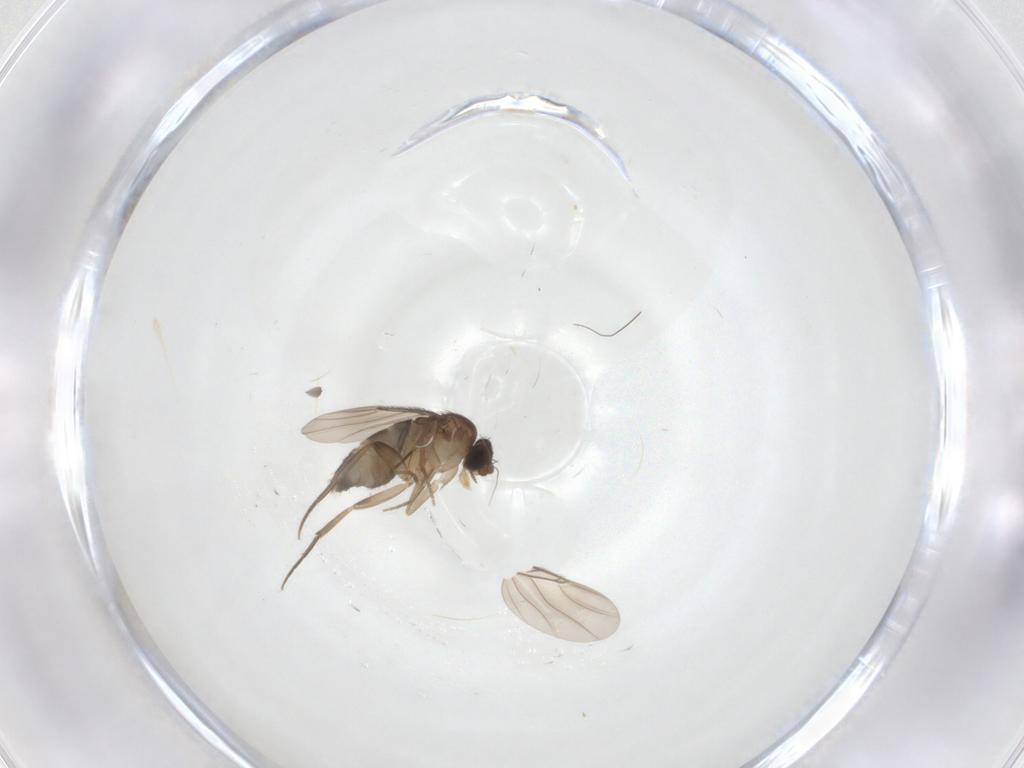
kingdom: Animalia
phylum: Arthropoda
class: Insecta
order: Diptera
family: Phoridae
